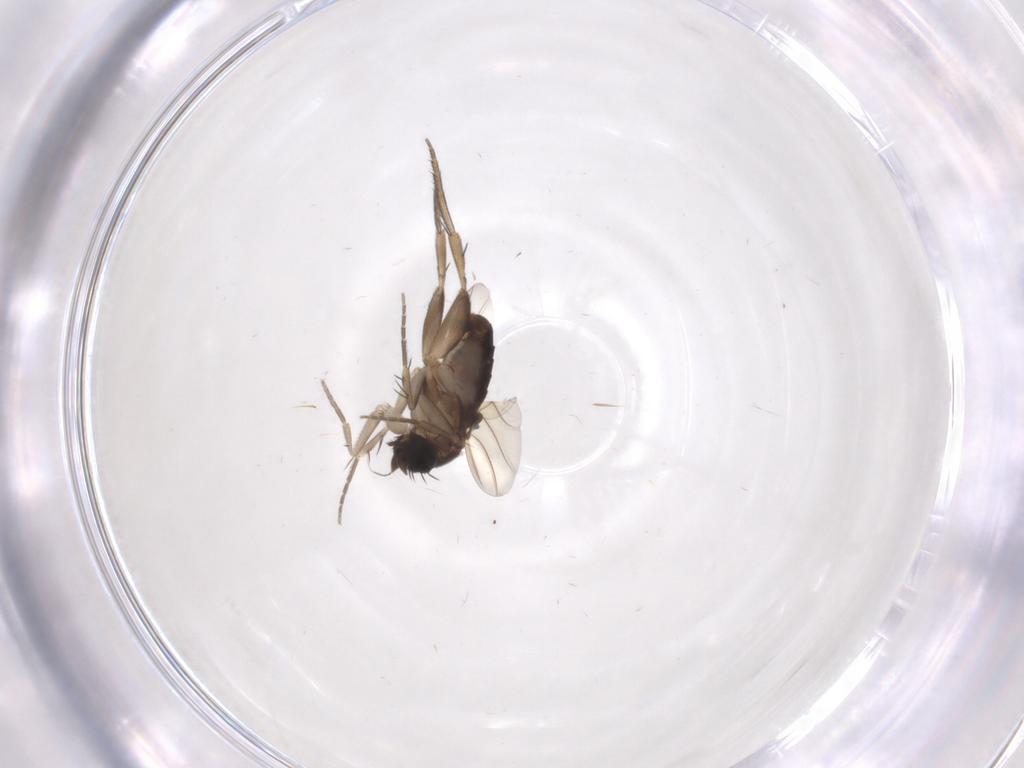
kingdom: Animalia
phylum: Arthropoda
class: Insecta
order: Diptera
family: Phoridae
